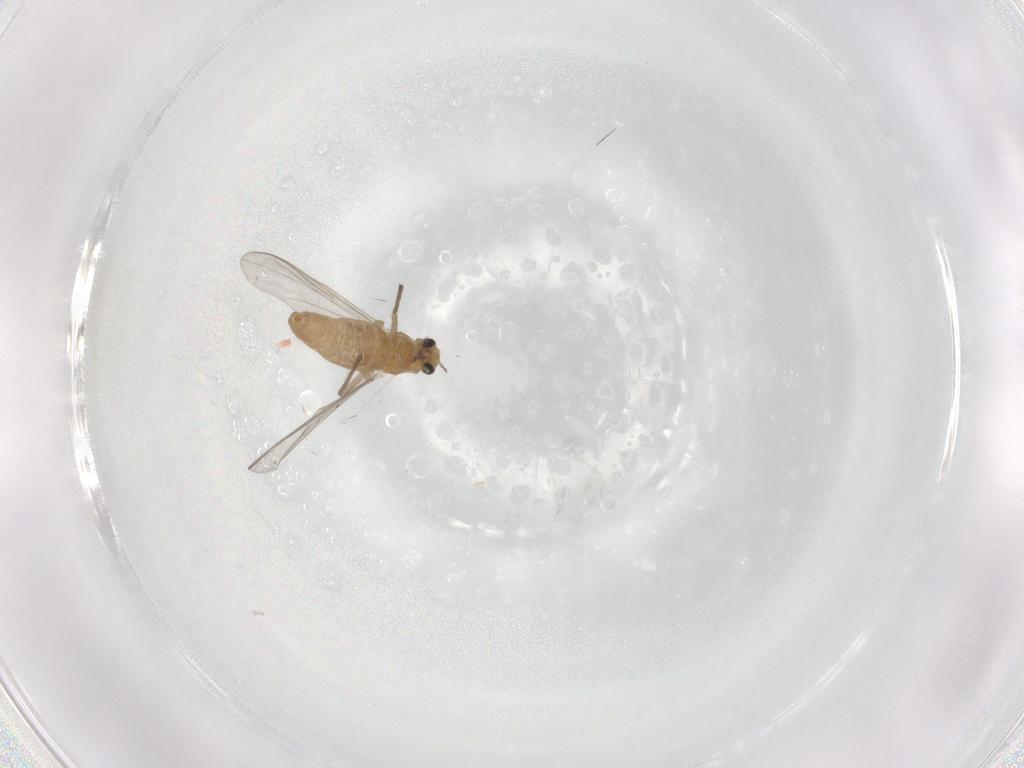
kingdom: Animalia
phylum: Arthropoda
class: Insecta
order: Diptera
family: Phoridae
